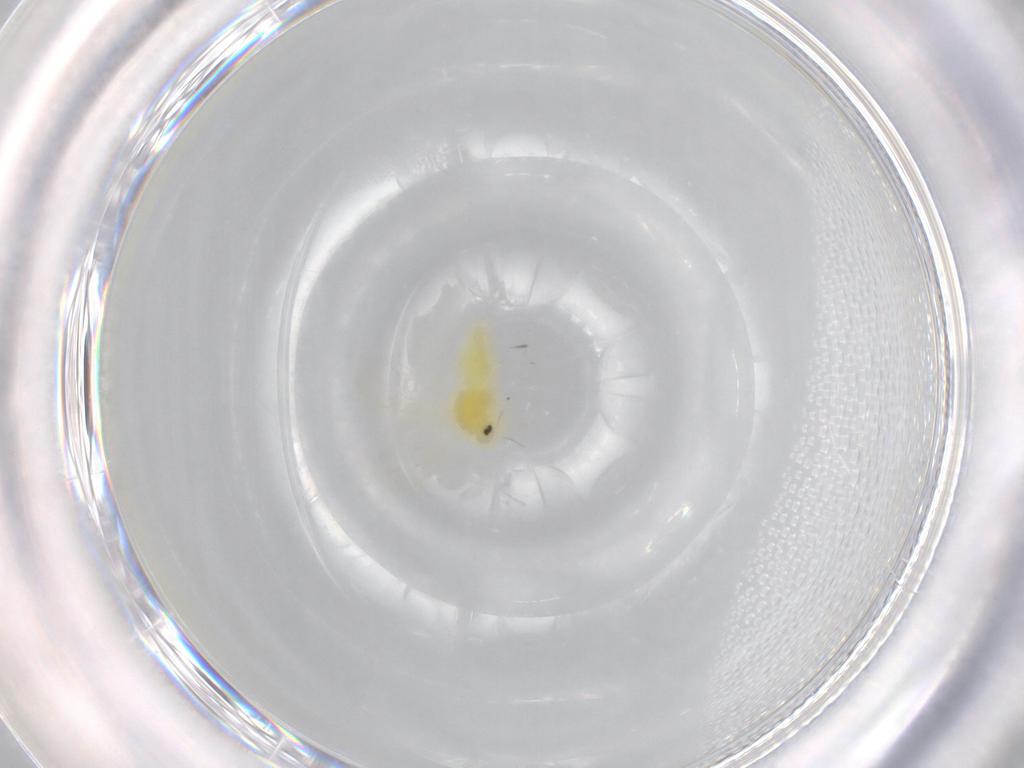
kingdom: Animalia
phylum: Arthropoda
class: Insecta
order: Hemiptera
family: Aleyrodidae
